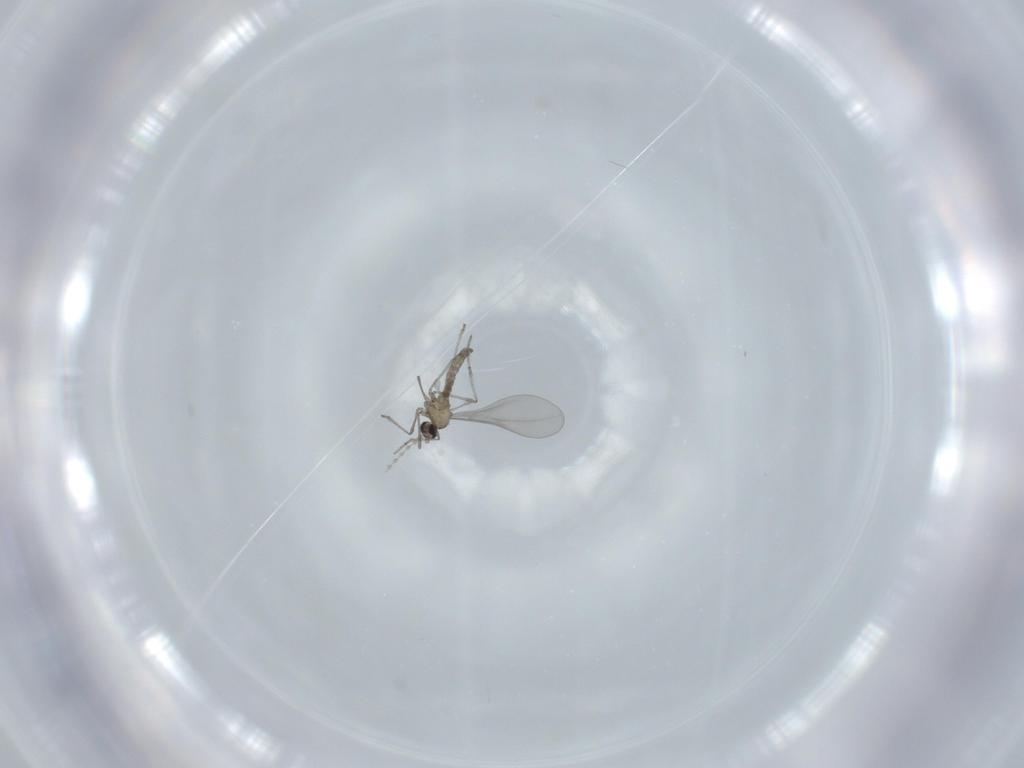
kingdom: Animalia
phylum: Arthropoda
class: Insecta
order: Diptera
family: Cecidomyiidae
